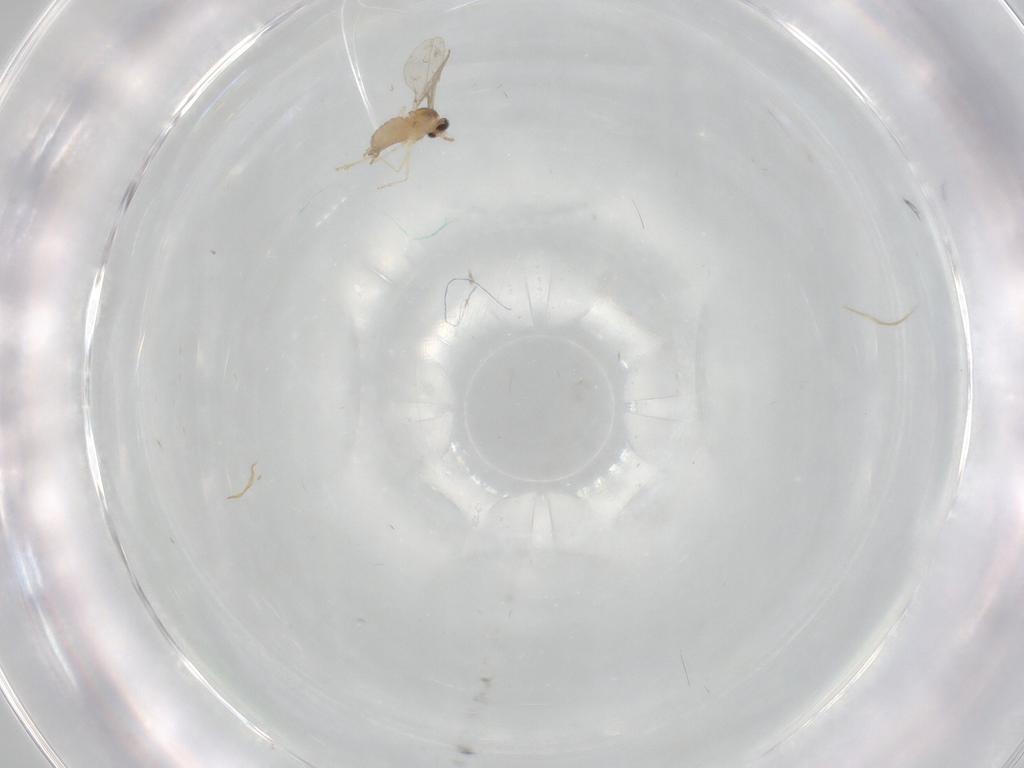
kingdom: Animalia
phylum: Arthropoda
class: Insecta
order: Diptera
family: Cecidomyiidae
